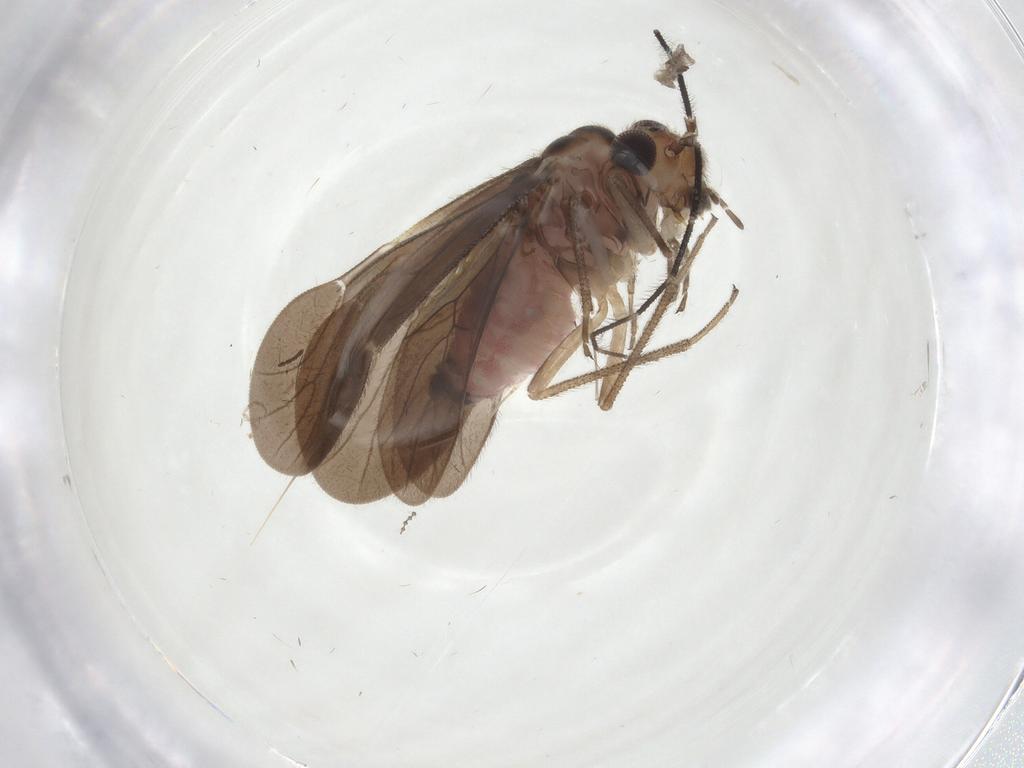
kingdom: Animalia
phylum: Arthropoda
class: Insecta
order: Psocodea
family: Amphipsocidae
